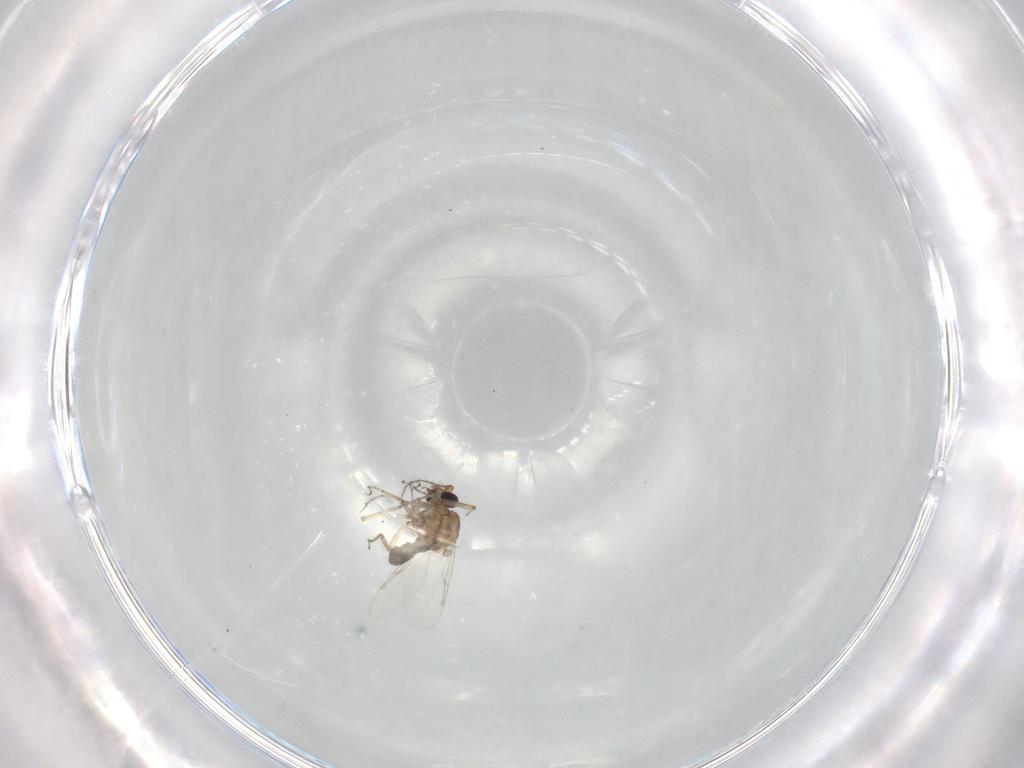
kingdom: Animalia
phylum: Arthropoda
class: Insecta
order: Diptera
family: Ceratopogonidae
